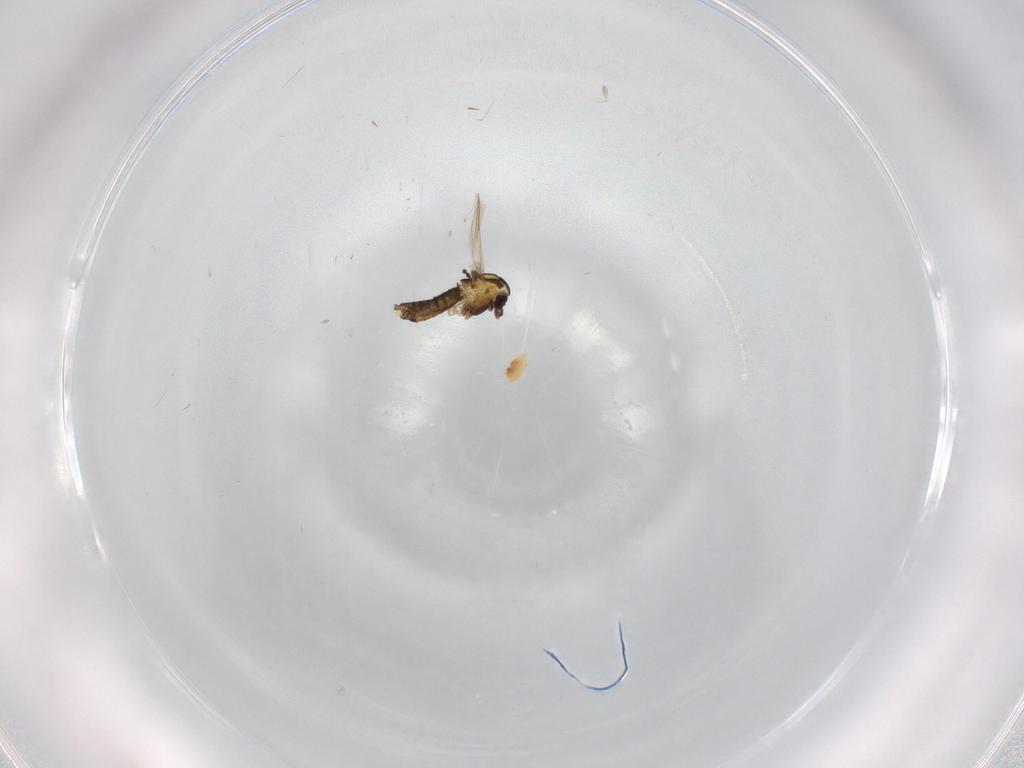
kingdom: Animalia
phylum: Arthropoda
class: Insecta
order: Diptera
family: Chironomidae
